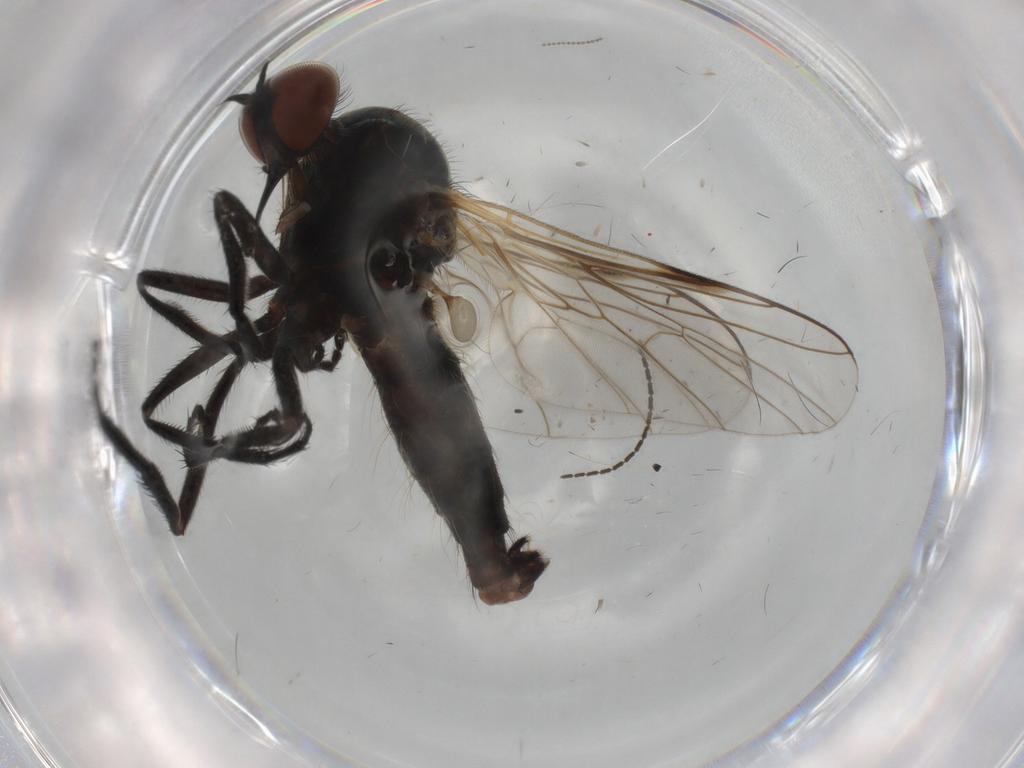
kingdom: Animalia
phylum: Arthropoda
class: Insecta
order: Diptera
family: Empididae
